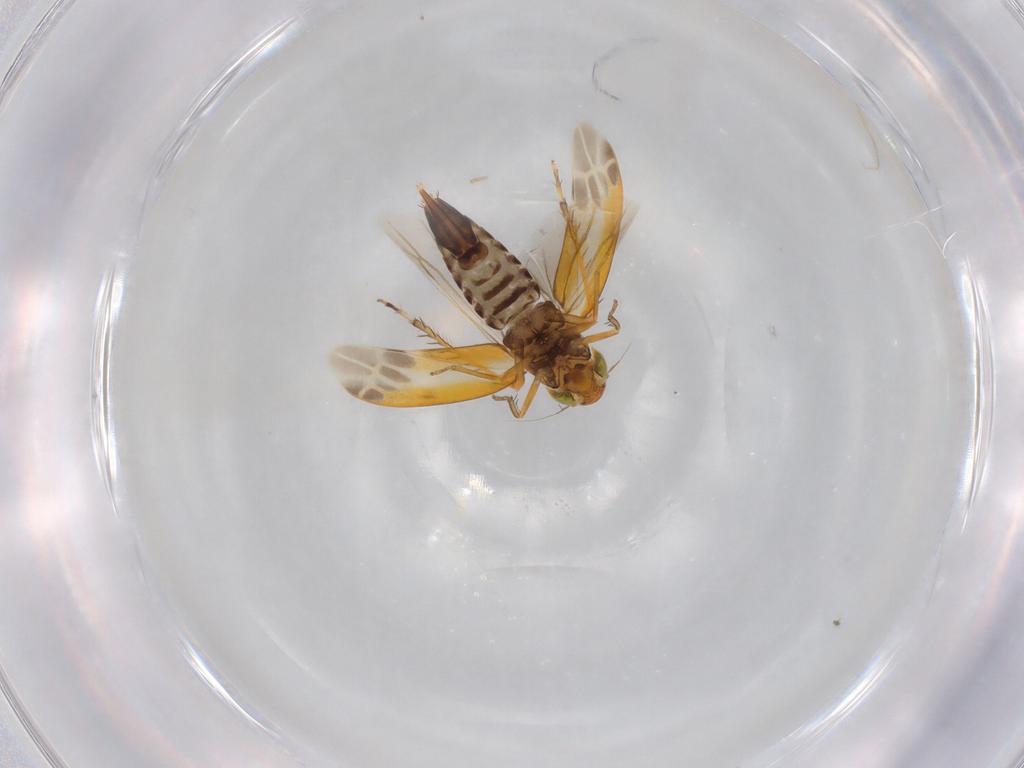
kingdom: Animalia
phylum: Arthropoda
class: Insecta
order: Hemiptera
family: Cicadellidae
